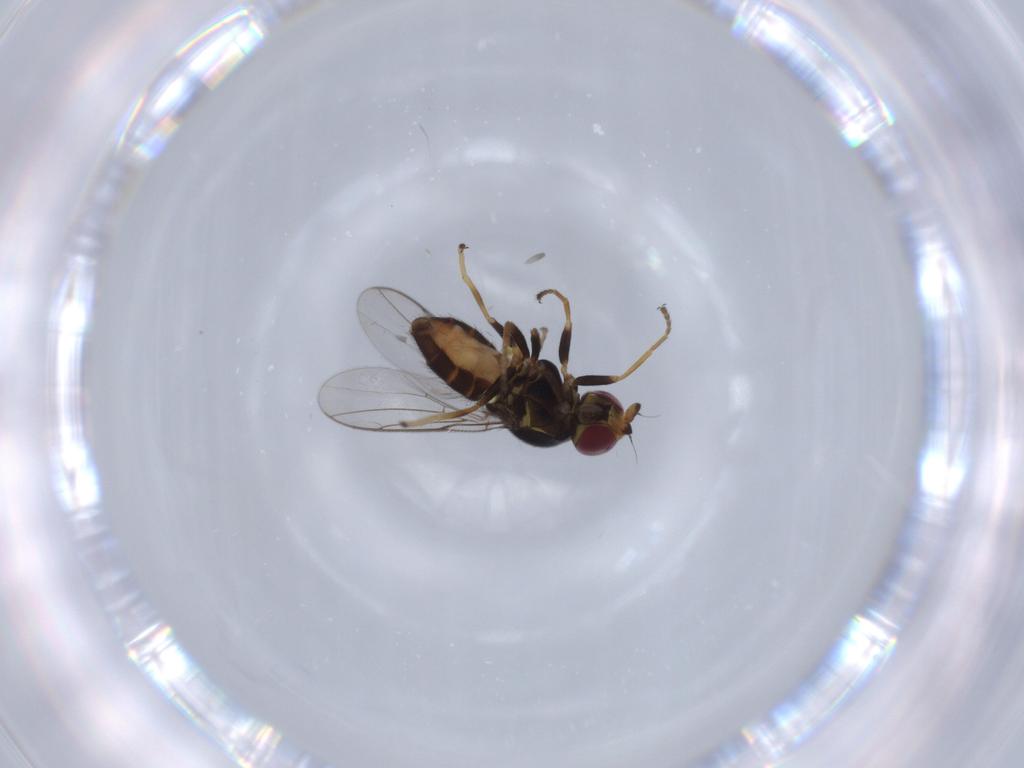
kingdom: Animalia
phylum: Arthropoda
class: Insecta
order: Diptera
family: Chloropidae
